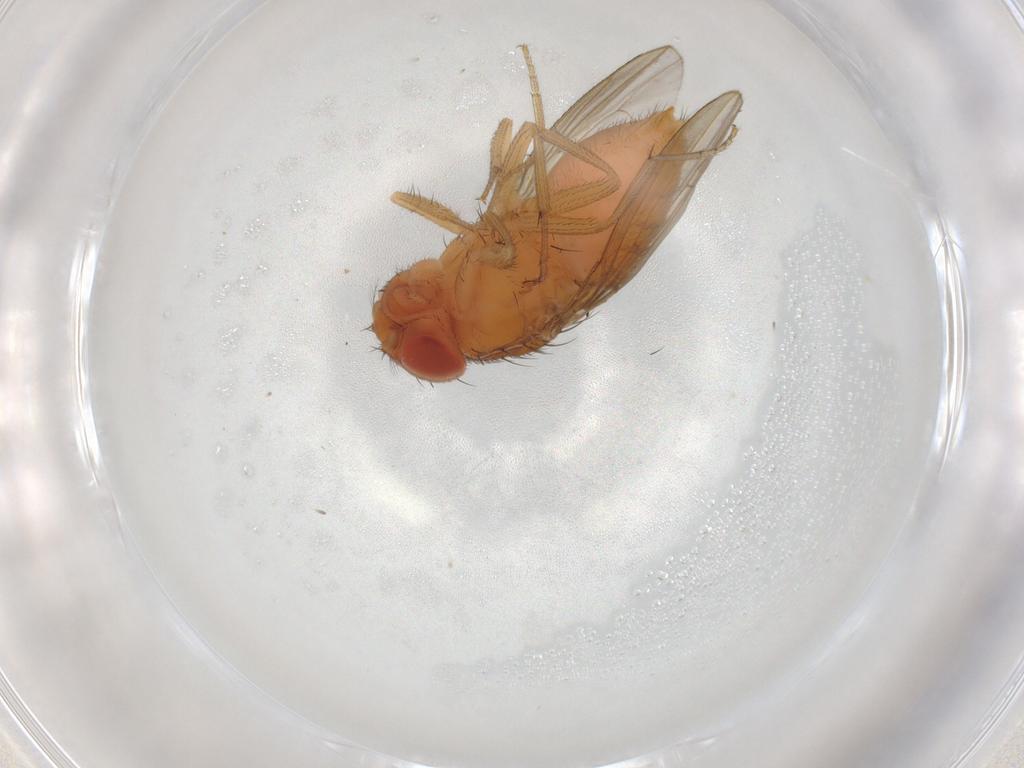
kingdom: Animalia
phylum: Arthropoda
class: Insecta
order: Diptera
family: Drosophilidae
